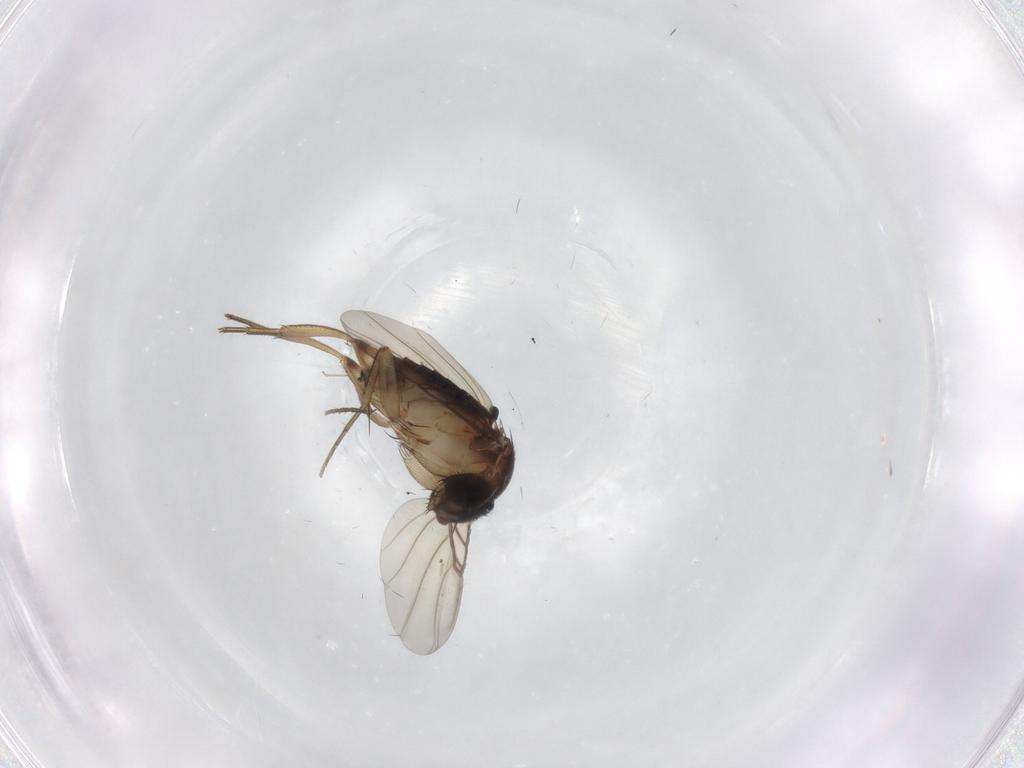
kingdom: Animalia
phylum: Arthropoda
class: Insecta
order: Diptera
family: Phoridae
